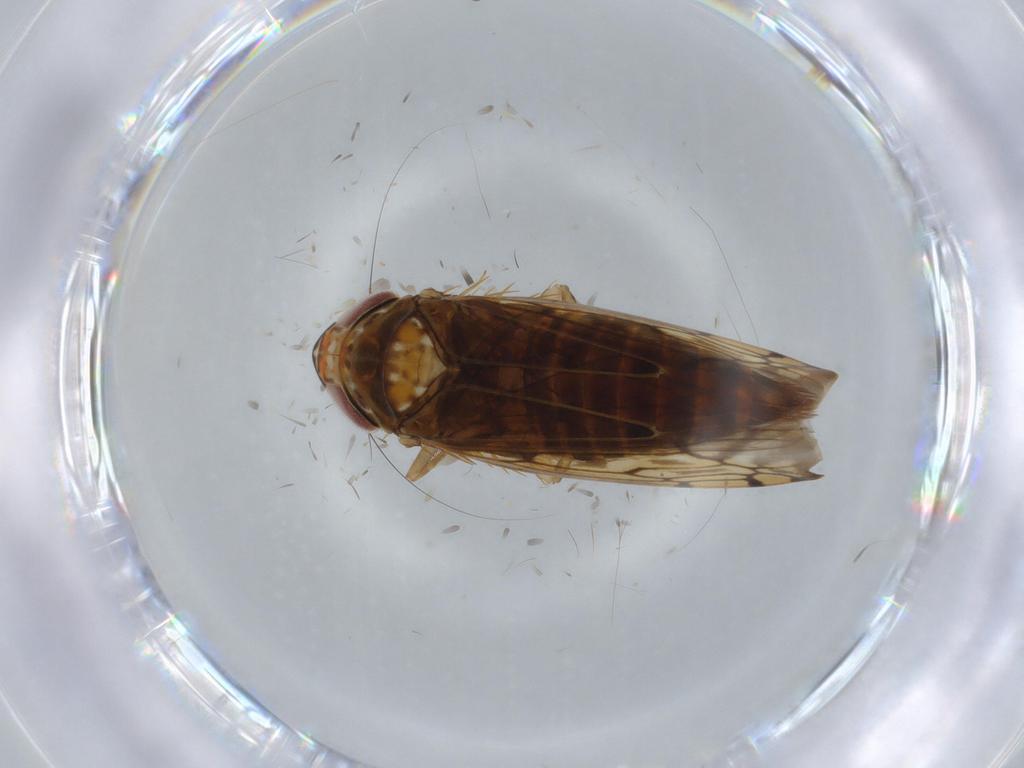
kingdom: Animalia
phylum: Arthropoda
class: Insecta
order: Hemiptera
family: Cicadellidae
